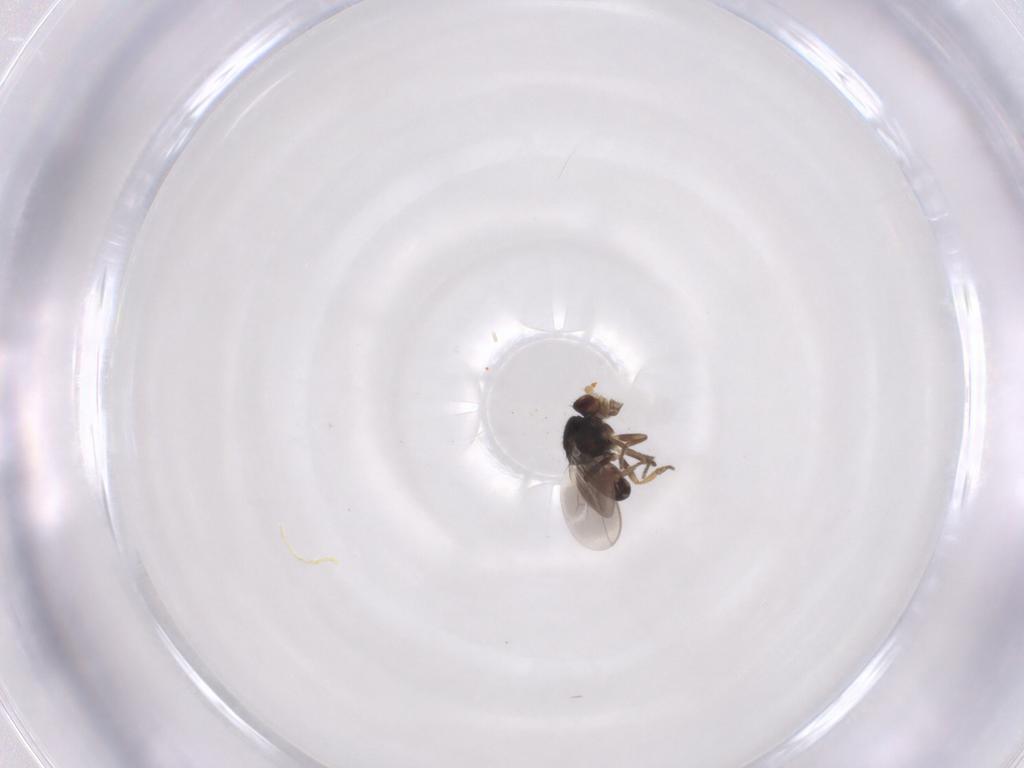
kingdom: Animalia
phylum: Arthropoda
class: Insecta
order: Diptera
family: Sphaeroceridae
